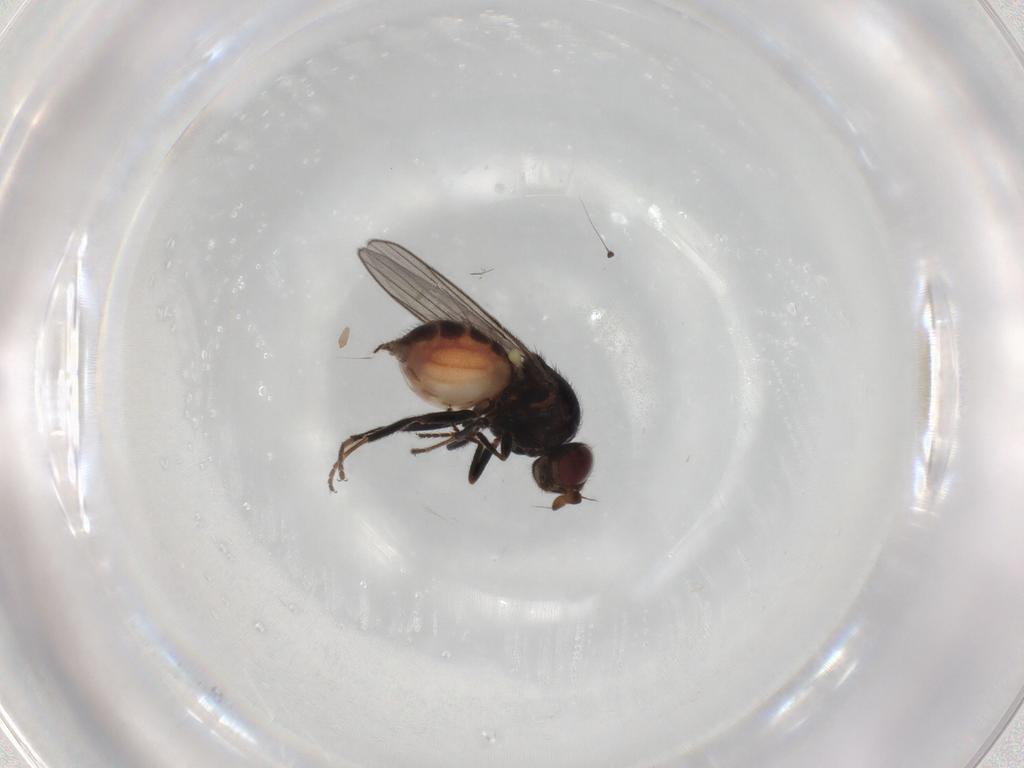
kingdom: Animalia
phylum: Arthropoda
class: Insecta
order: Diptera
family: Chloropidae
